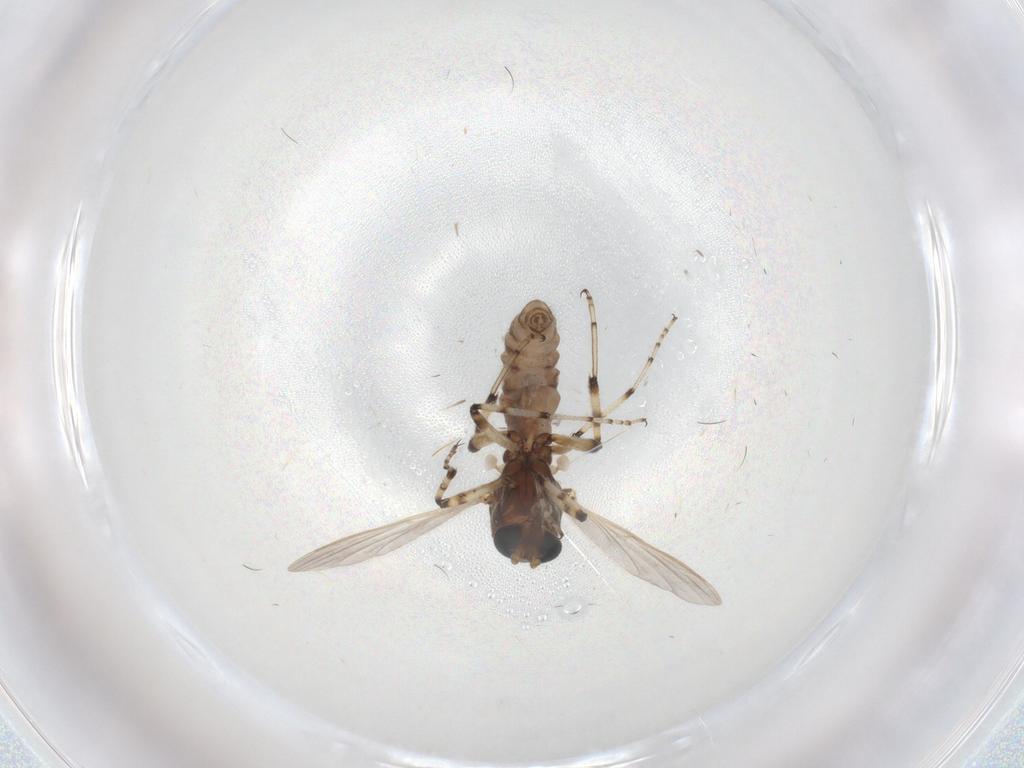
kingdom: Animalia
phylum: Arthropoda
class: Insecta
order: Diptera
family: Ceratopogonidae
